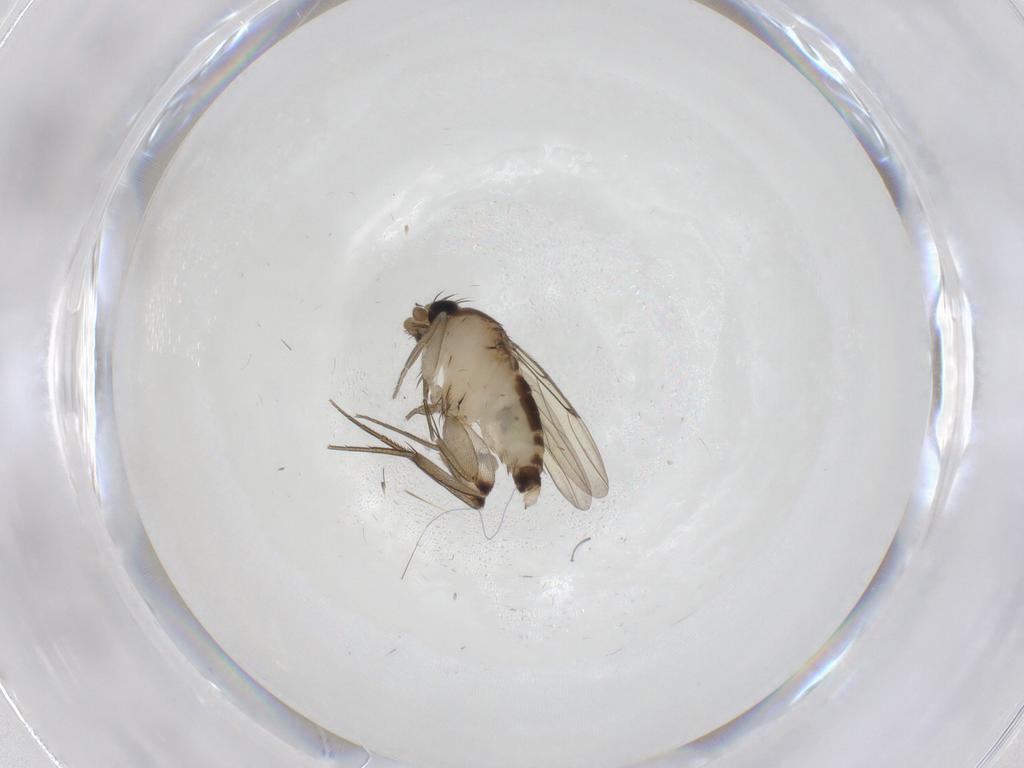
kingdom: Animalia
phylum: Arthropoda
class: Insecta
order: Diptera
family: Phoridae
